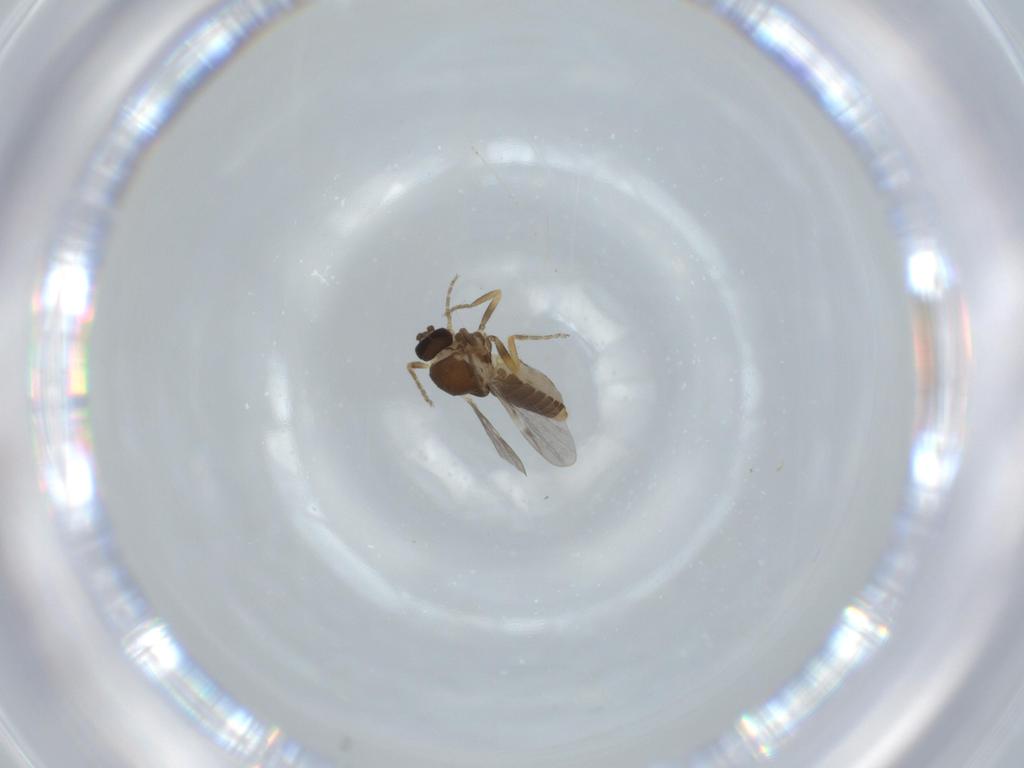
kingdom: Animalia
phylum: Arthropoda
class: Insecta
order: Diptera
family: Ceratopogonidae
